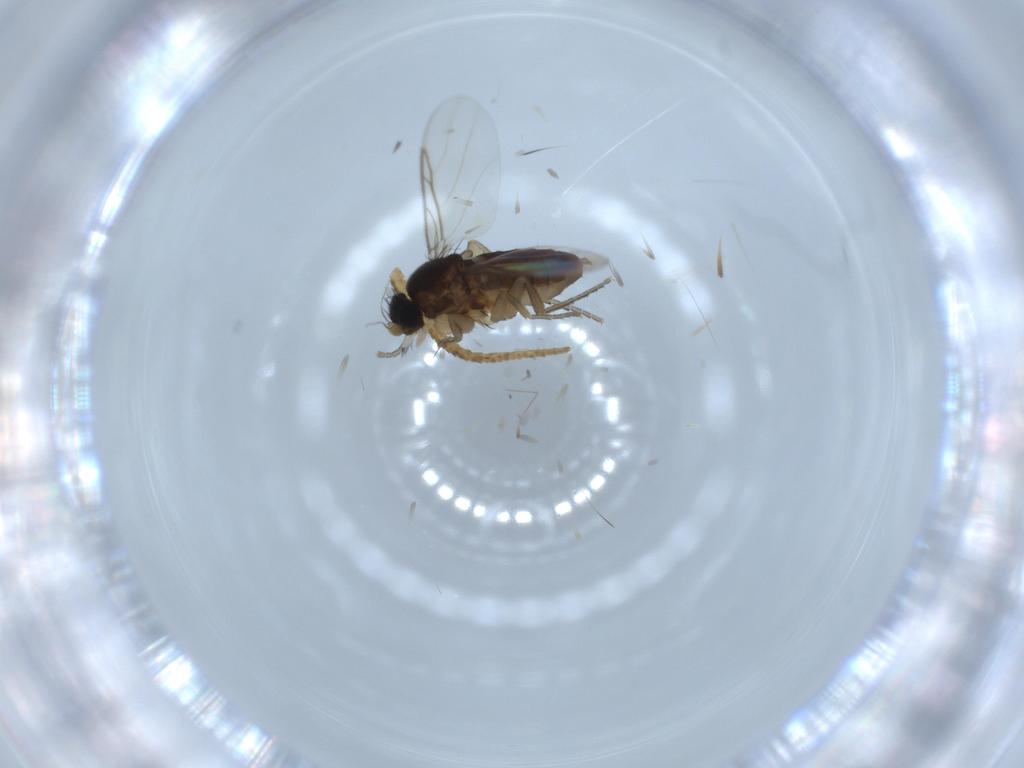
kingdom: Animalia
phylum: Arthropoda
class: Insecta
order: Diptera
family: Phoridae
